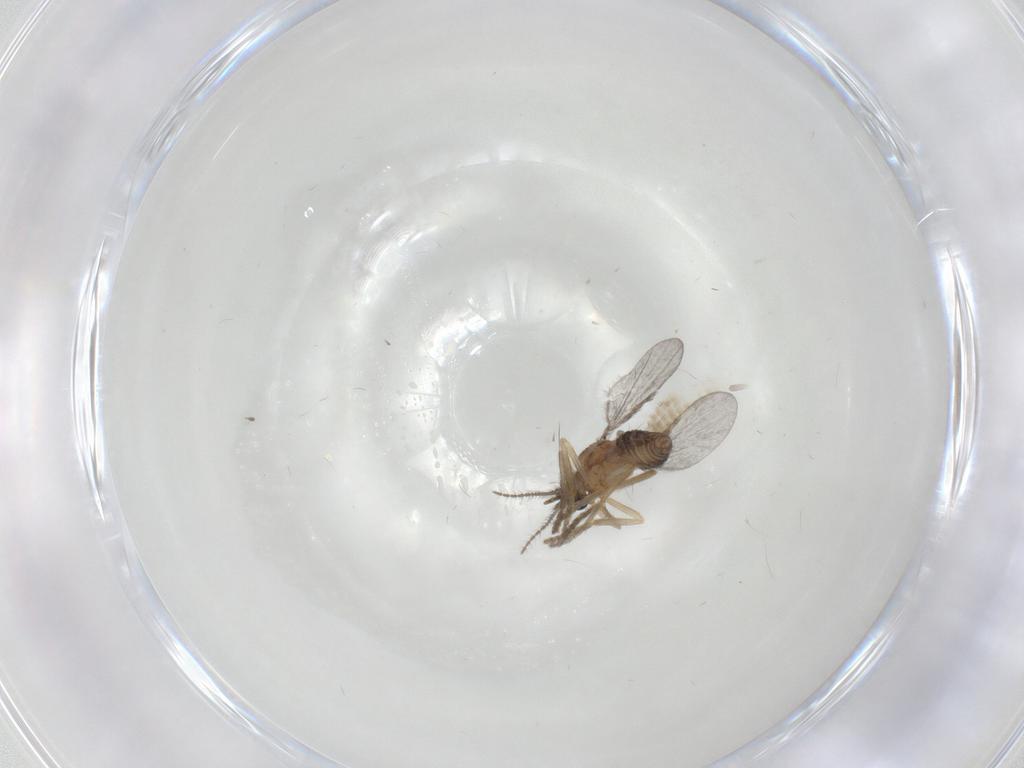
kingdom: Animalia
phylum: Arthropoda
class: Insecta
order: Diptera
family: Ceratopogonidae
